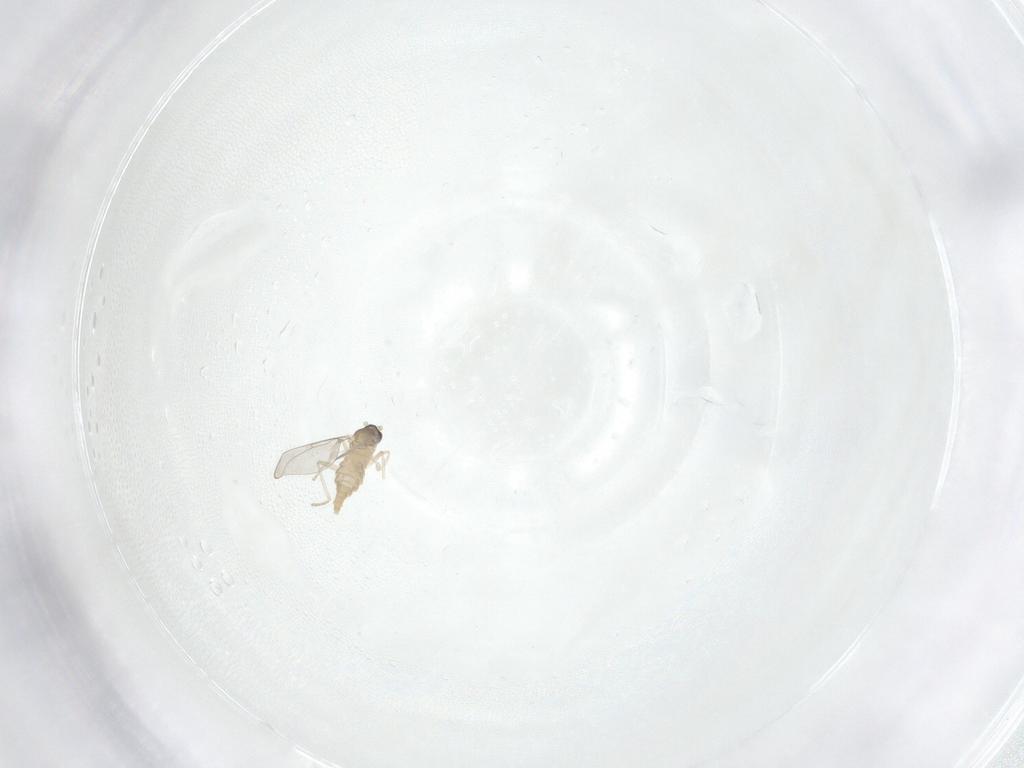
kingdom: Animalia
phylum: Arthropoda
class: Insecta
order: Diptera
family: Cecidomyiidae
